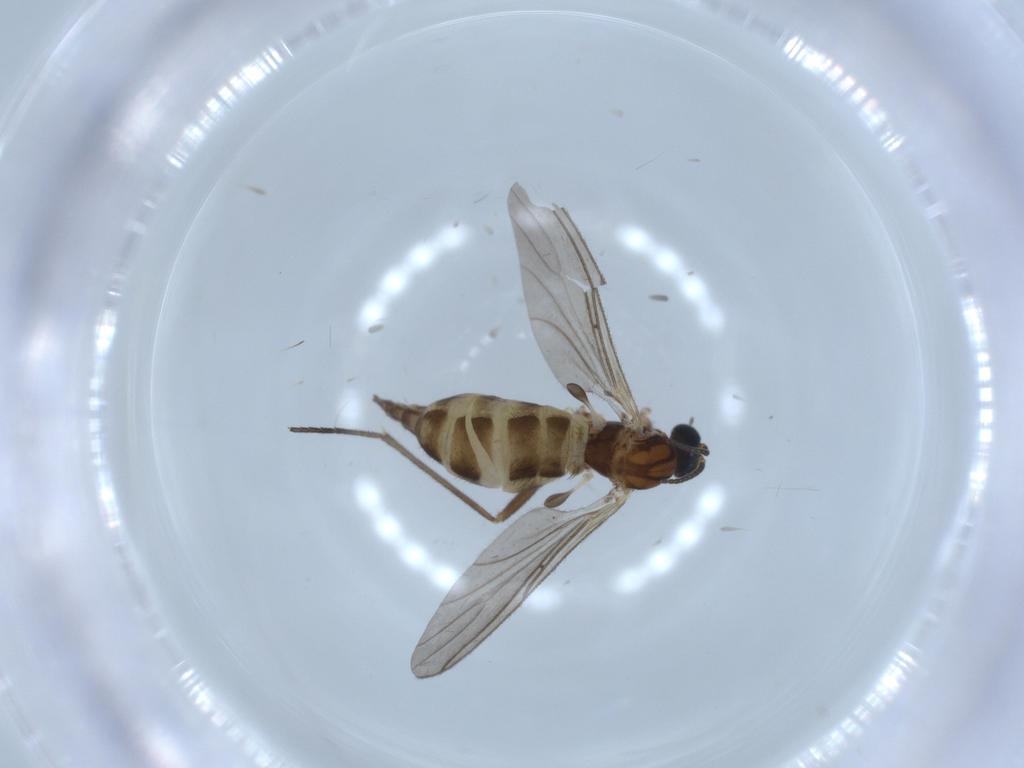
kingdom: Animalia
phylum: Arthropoda
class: Insecta
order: Diptera
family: Sciaridae
